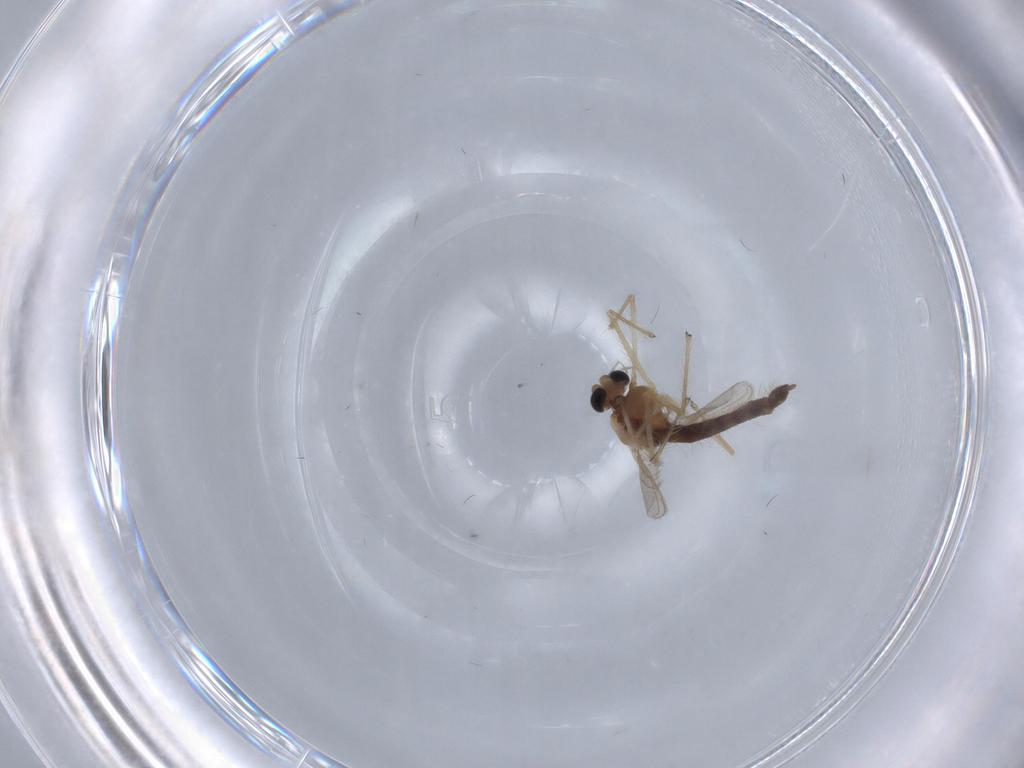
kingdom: Animalia
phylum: Arthropoda
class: Insecta
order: Diptera
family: Chironomidae
